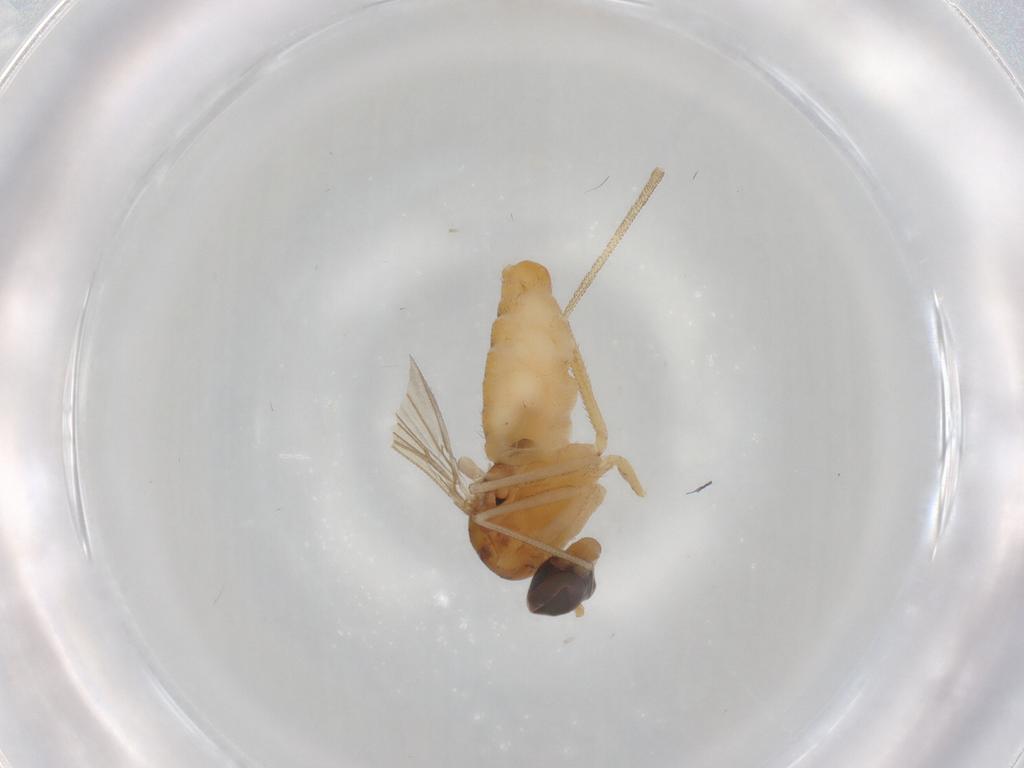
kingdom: Animalia
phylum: Arthropoda
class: Insecta
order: Diptera
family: Dolichopodidae
